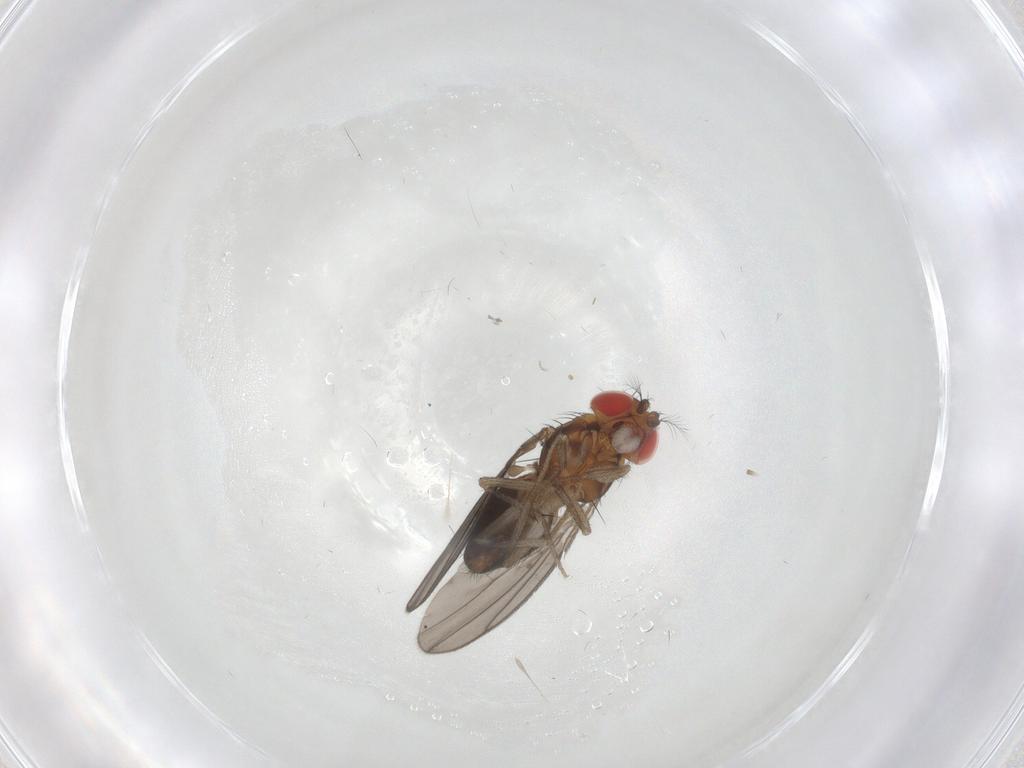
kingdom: Animalia
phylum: Arthropoda
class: Insecta
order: Diptera
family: Drosophilidae
